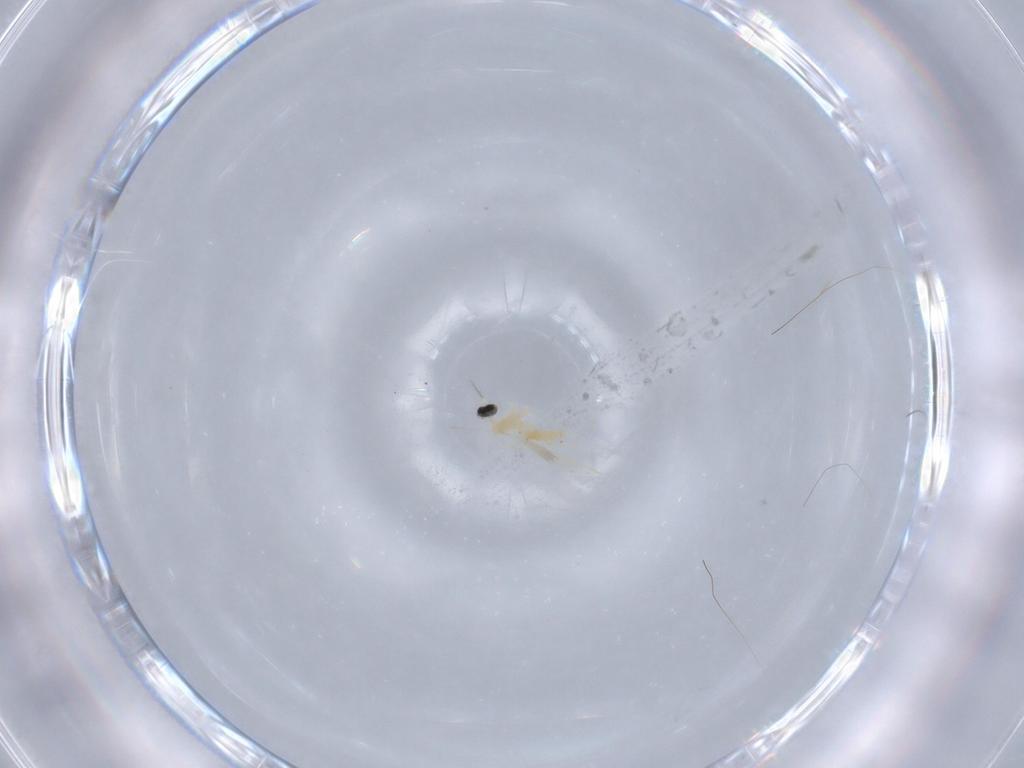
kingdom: Animalia
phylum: Arthropoda
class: Insecta
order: Diptera
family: Cecidomyiidae
